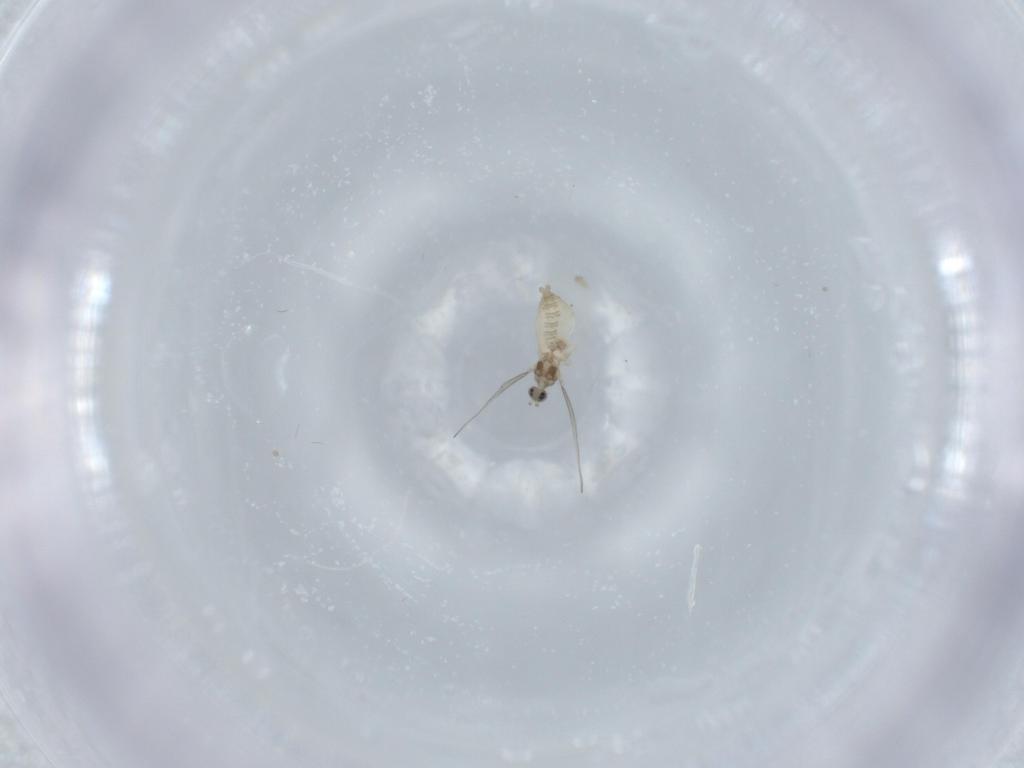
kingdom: Animalia
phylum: Arthropoda
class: Insecta
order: Diptera
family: Cecidomyiidae
